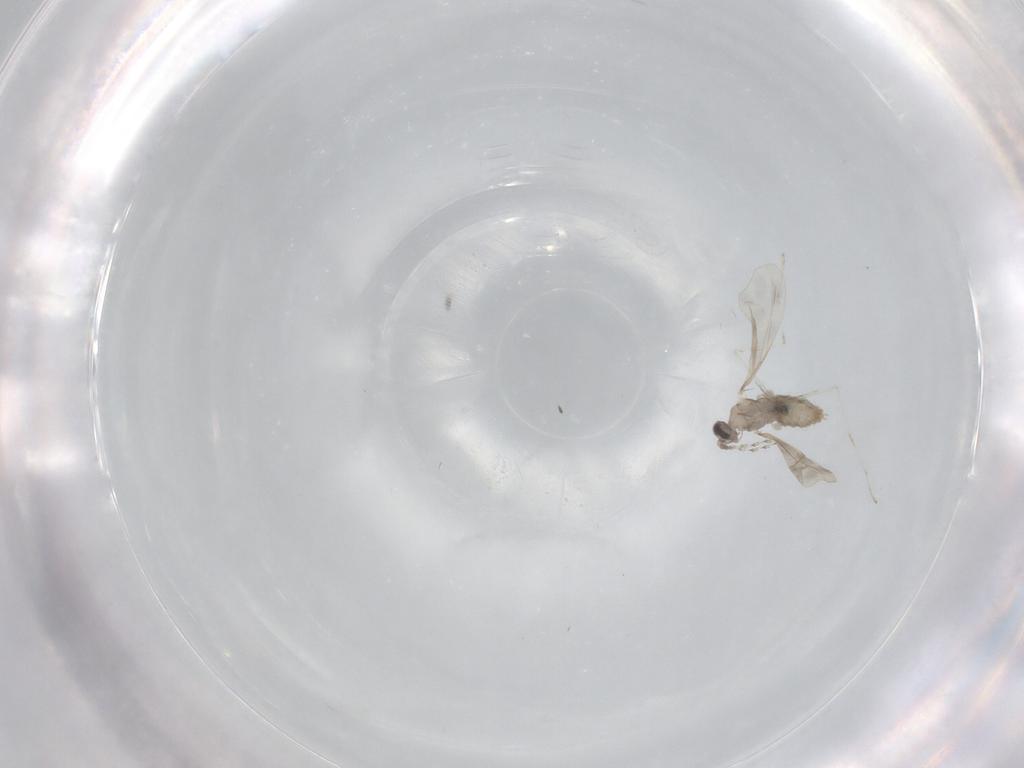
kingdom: Animalia
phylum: Arthropoda
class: Insecta
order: Diptera
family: Cecidomyiidae
